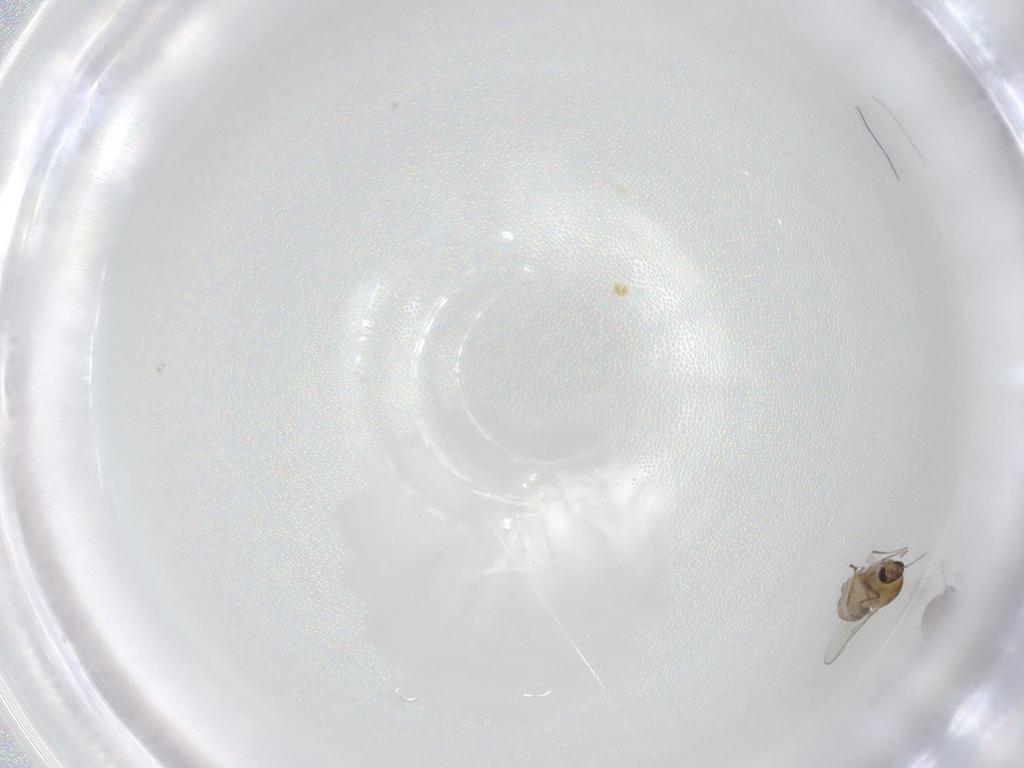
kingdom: Animalia
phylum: Arthropoda
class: Insecta
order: Diptera
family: Chironomidae
